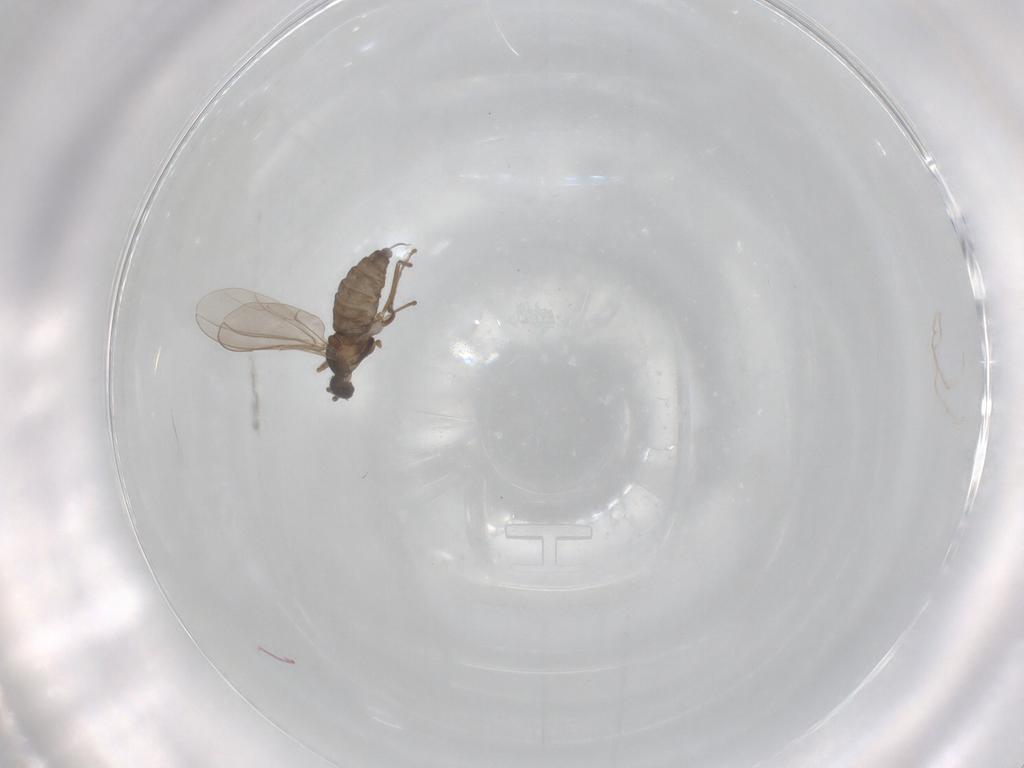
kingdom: Animalia
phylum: Arthropoda
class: Insecta
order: Diptera
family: Cecidomyiidae
